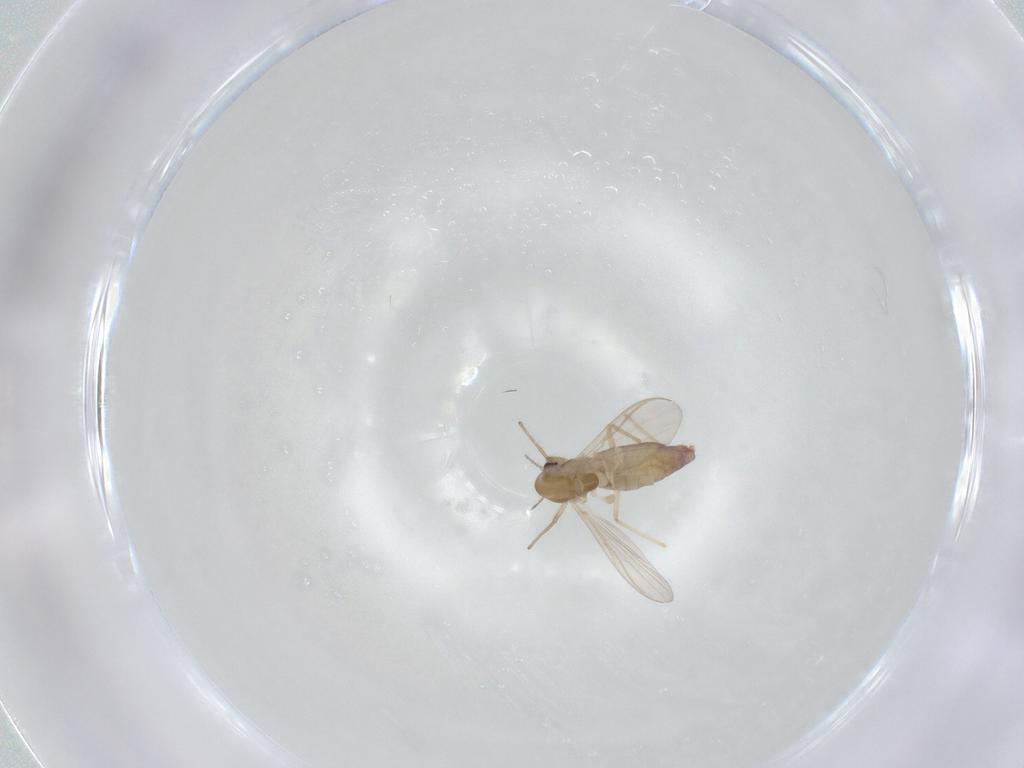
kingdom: Animalia
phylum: Arthropoda
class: Insecta
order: Diptera
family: Chironomidae
